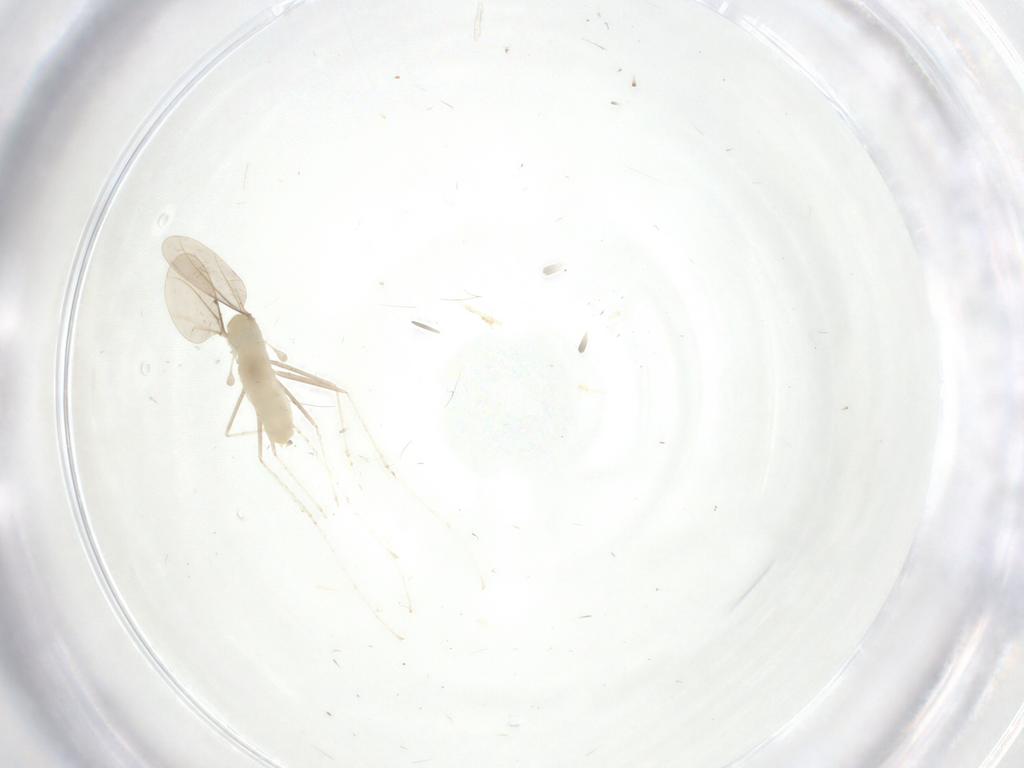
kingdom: Animalia
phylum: Arthropoda
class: Insecta
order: Diptera
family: Cecidomyiidae
